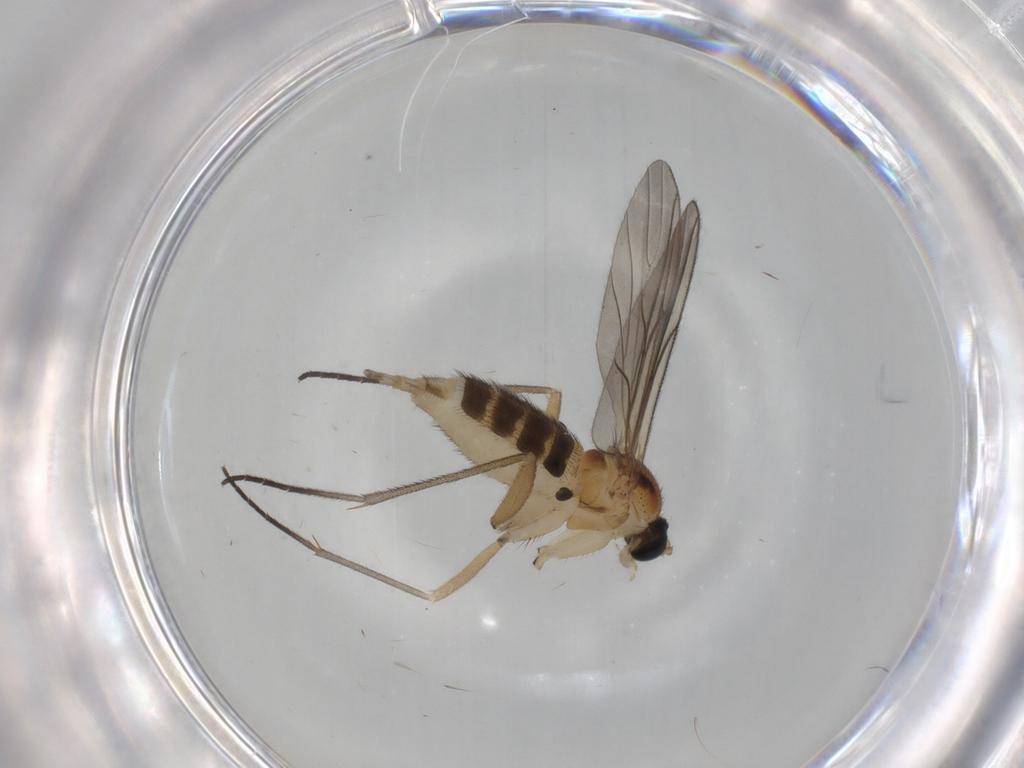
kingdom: Animalia
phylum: Arthropoda
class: Insecta
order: Diptera
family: Sciaridae
